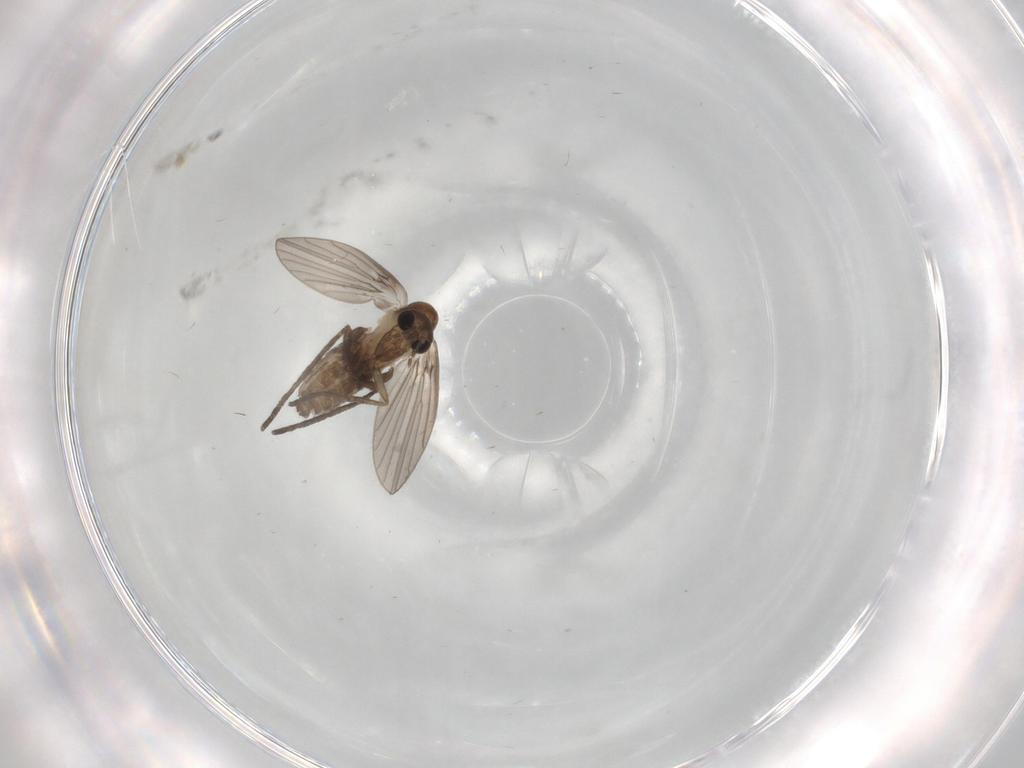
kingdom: Animalia
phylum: Arthropoda
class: Insecta
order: Diptera
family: Psychodidae
